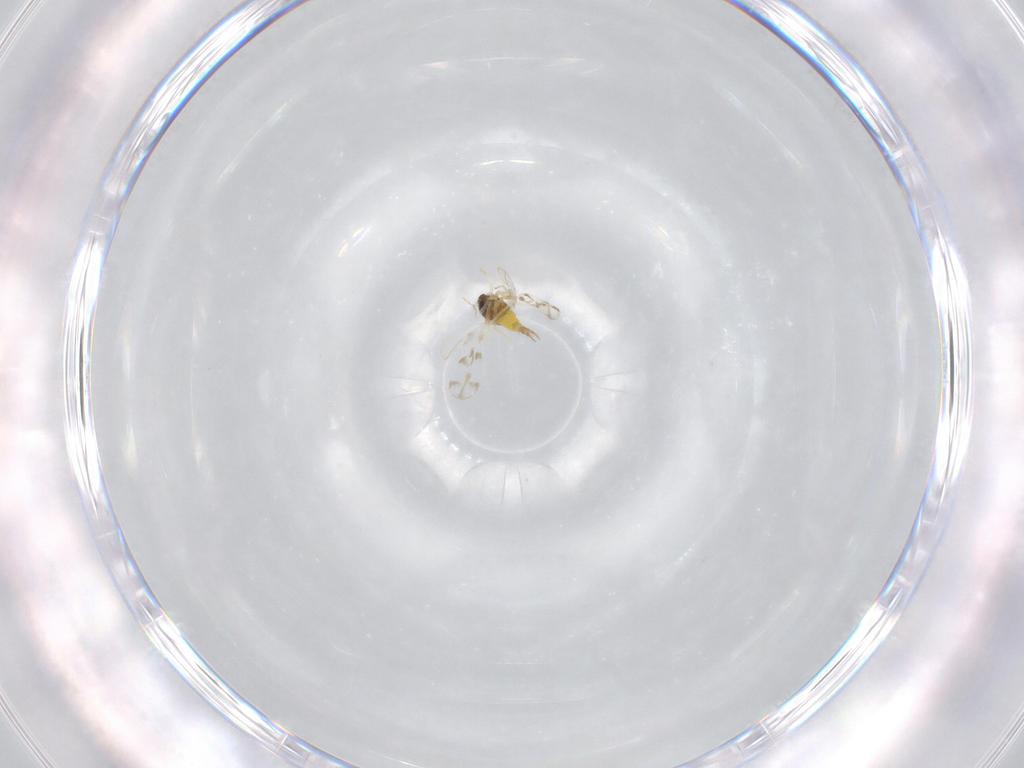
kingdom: Animalia
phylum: Arthropoda
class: Insecta
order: Hemiptera
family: Aleyrodidae
